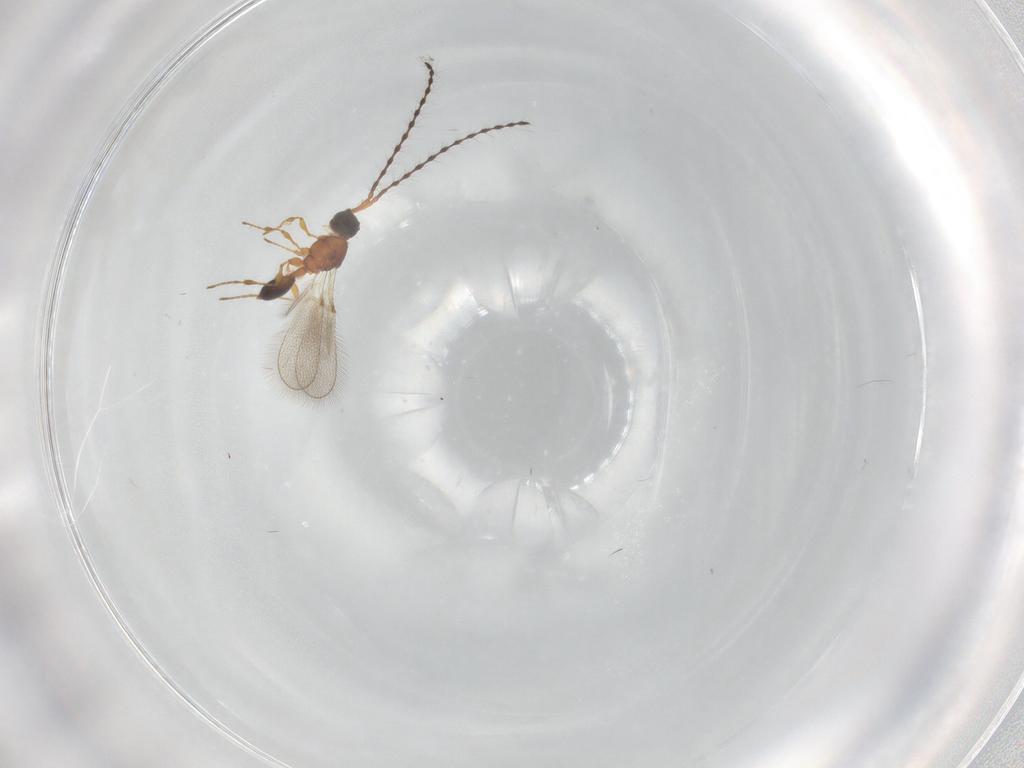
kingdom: Animalia
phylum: Arthropoda
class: Insecta
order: Hymenoptera
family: Diapriidae
